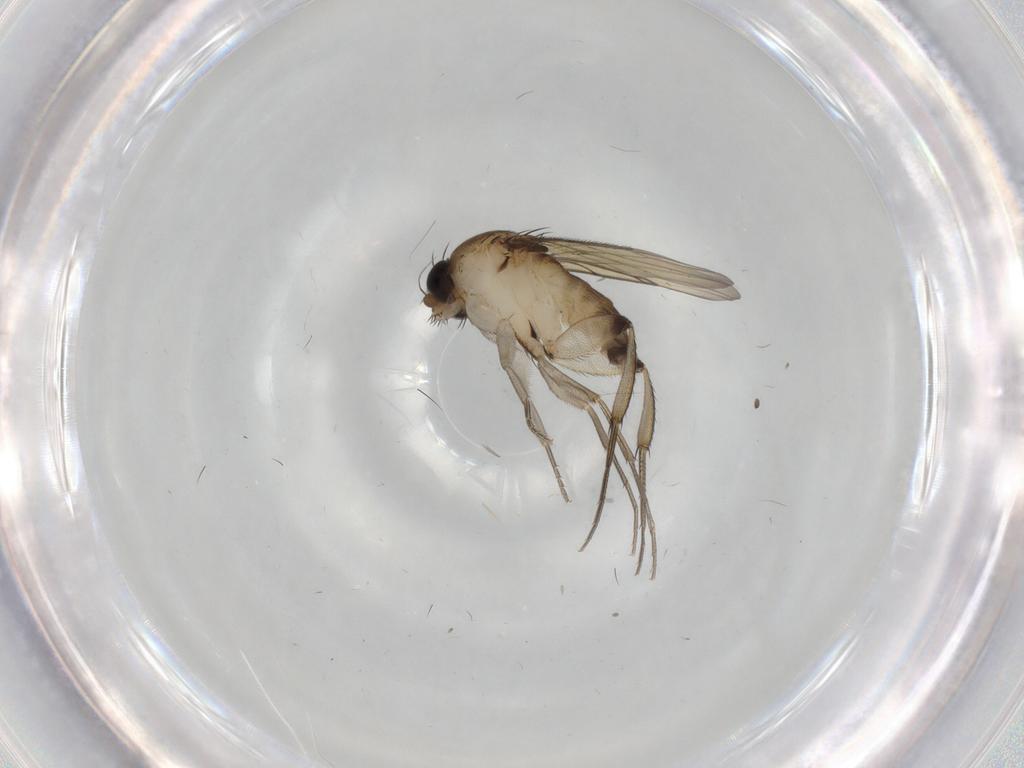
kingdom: Animalia
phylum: Arthropoda
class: Insecta
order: Diptera
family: Phoridae
